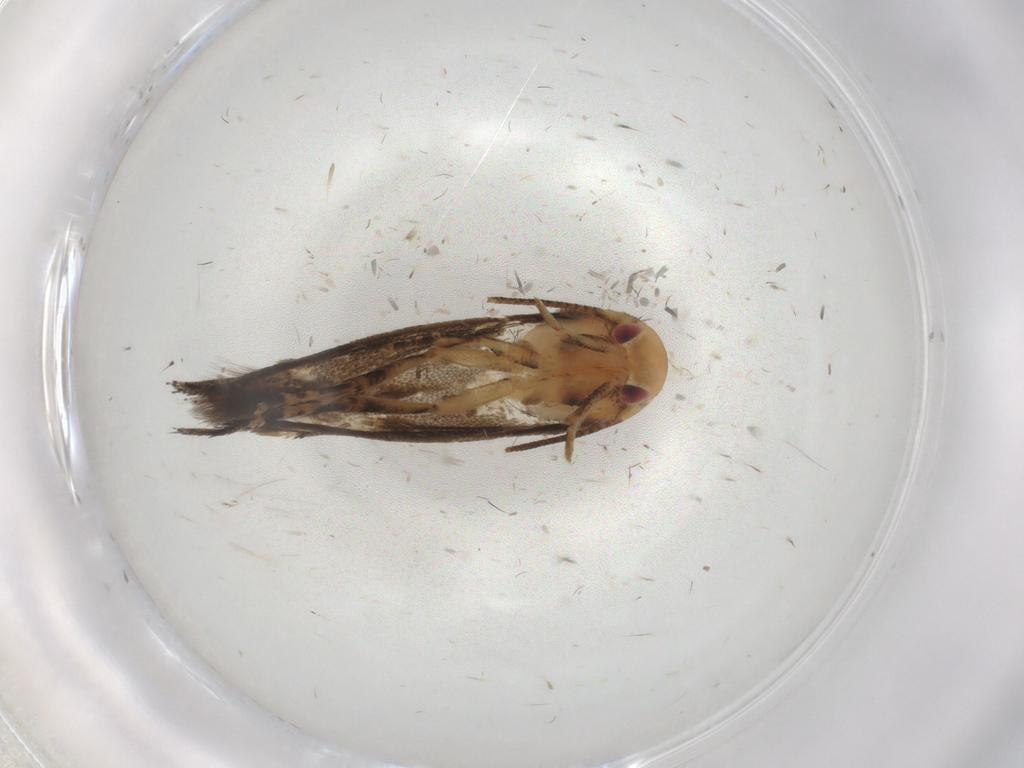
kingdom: Animalia
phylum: Arthropoda
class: Insecta
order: Lepidoptera
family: Tineidae
